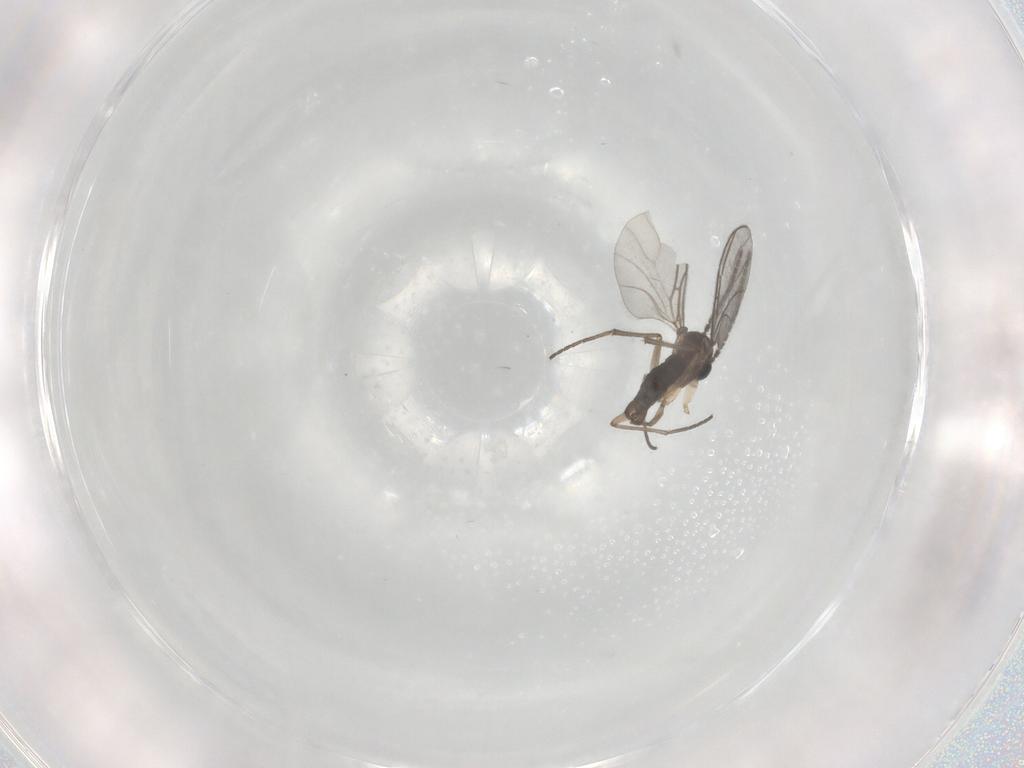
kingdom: Animalia
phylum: Arthropoda
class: Insecta
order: Diptera
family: Sciaridae
